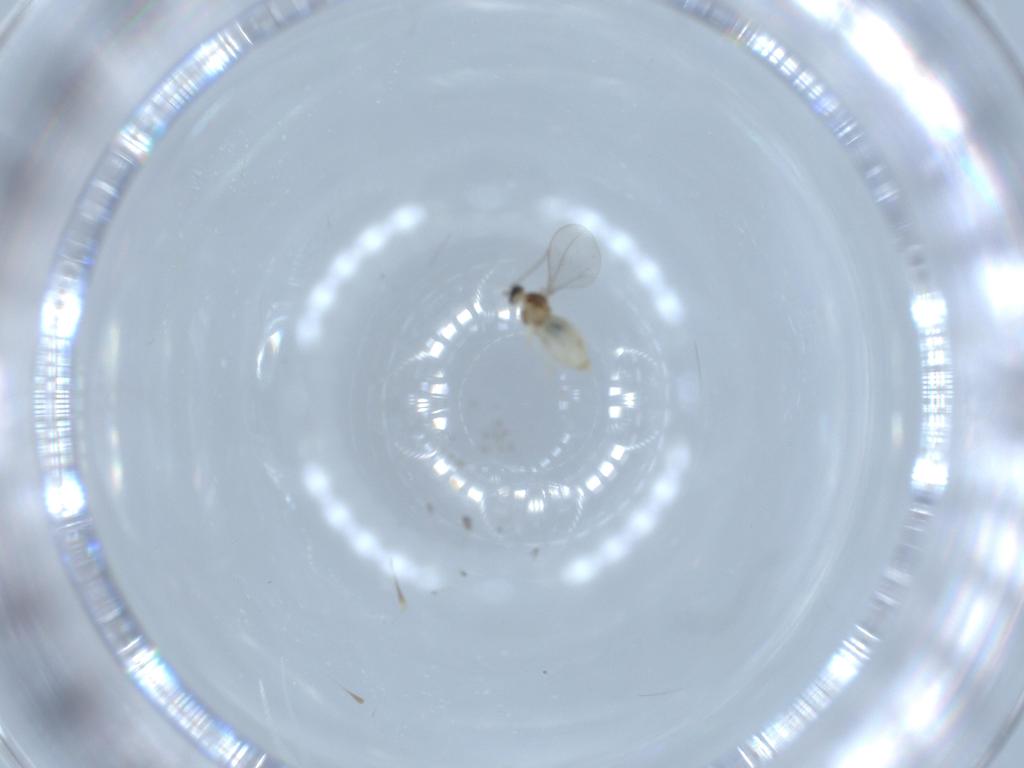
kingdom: Animalia
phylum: Arthropoda
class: Insecta
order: Diptera
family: Cecidomyiidae
